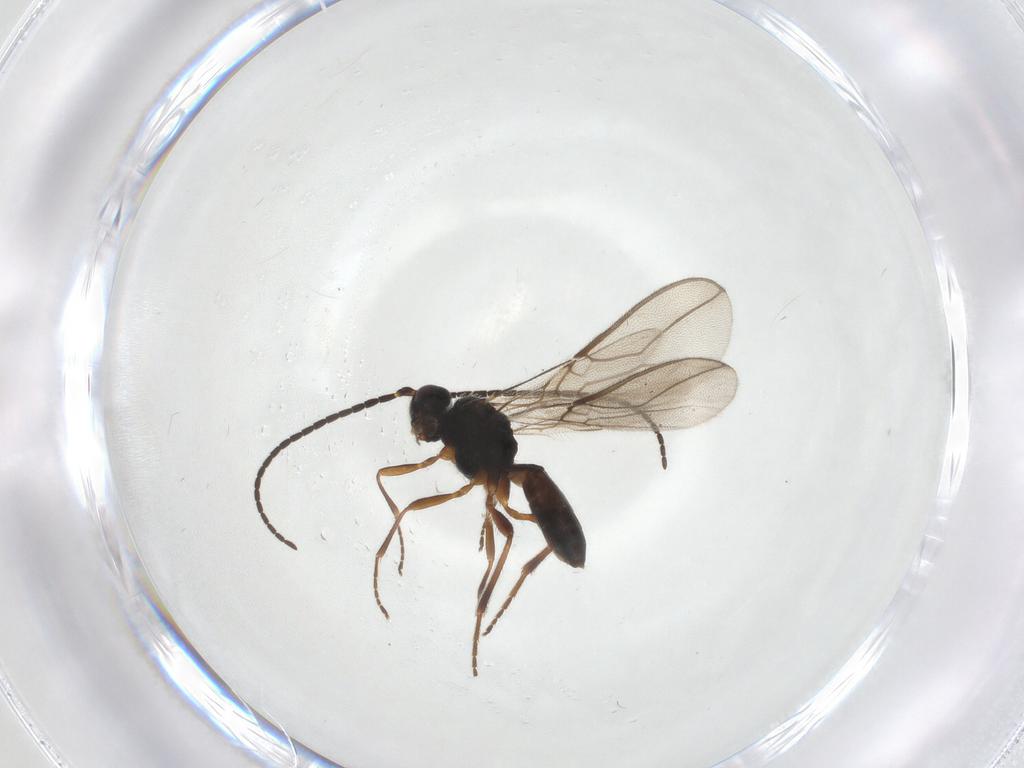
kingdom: Animalia
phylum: Arthropoda
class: Insecta
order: Hymenoptera
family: Braconidae
